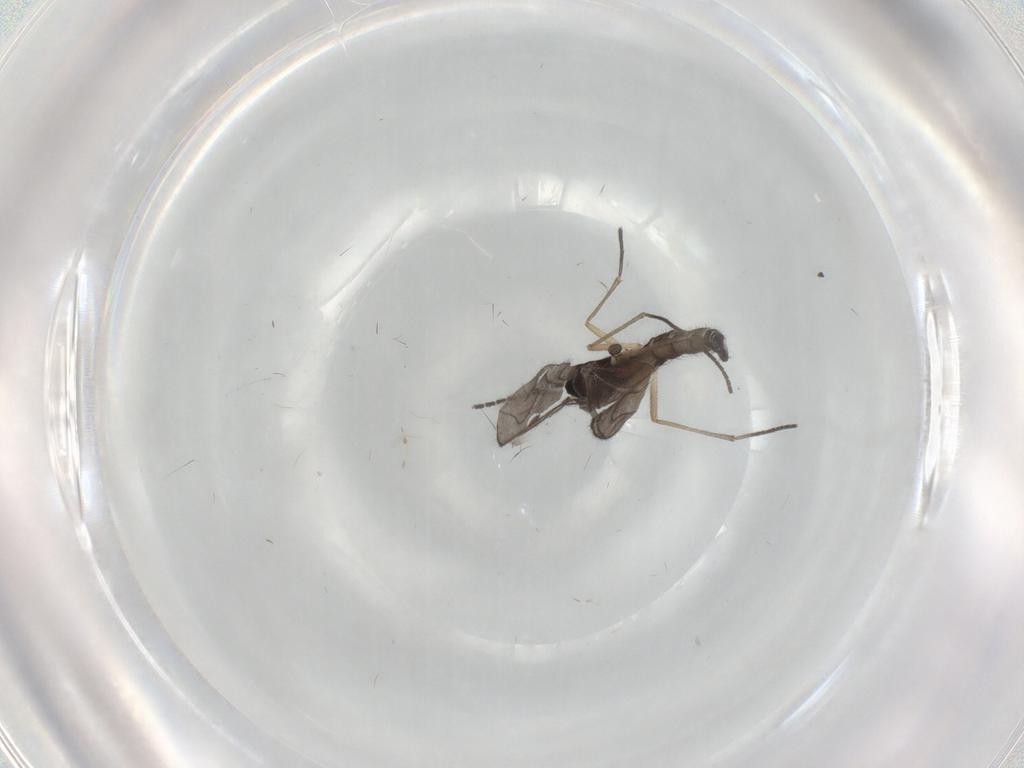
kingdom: Animalia
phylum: Arthropoda
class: Insecta
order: Diptera
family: Sciaridae
